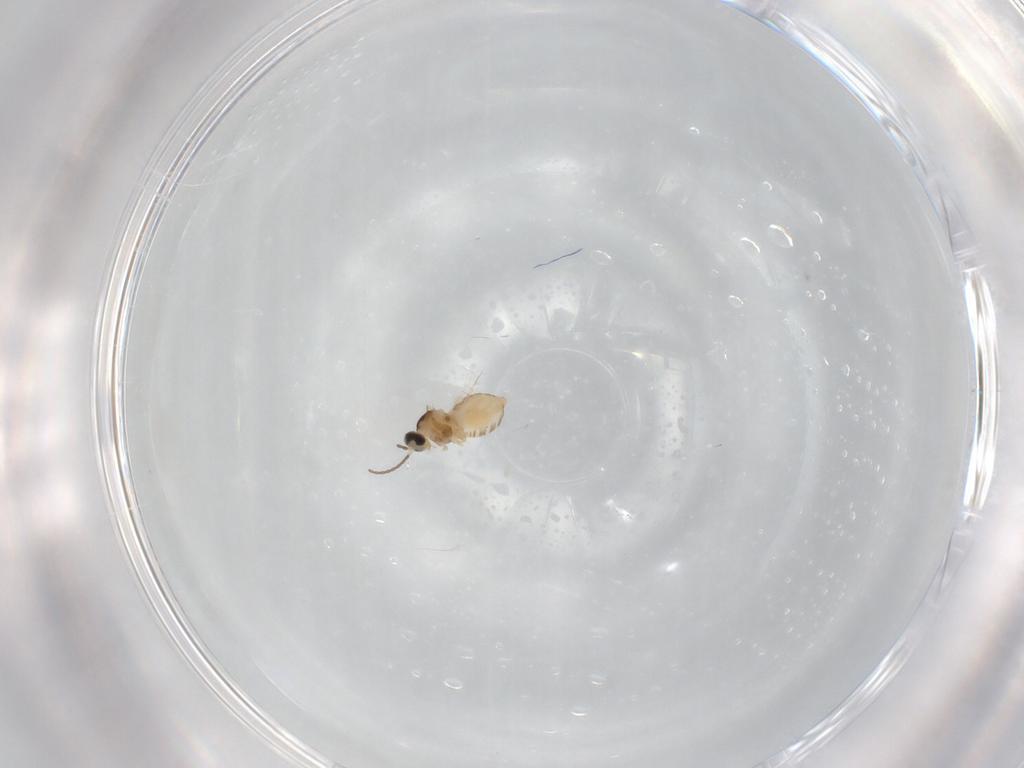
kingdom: Animalia
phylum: Arthropoda
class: Insecta
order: Diptera
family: Cecidomyiidae
